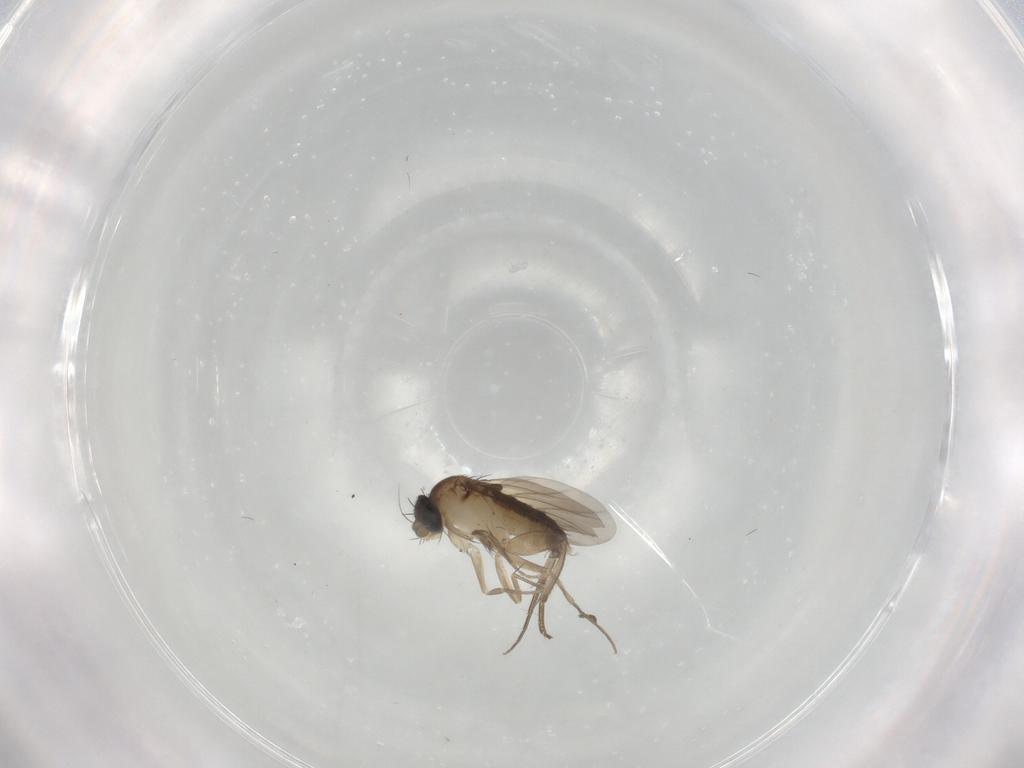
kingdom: Animalia
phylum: Arthropoda
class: Insecta
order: Diptera
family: Phoridae
